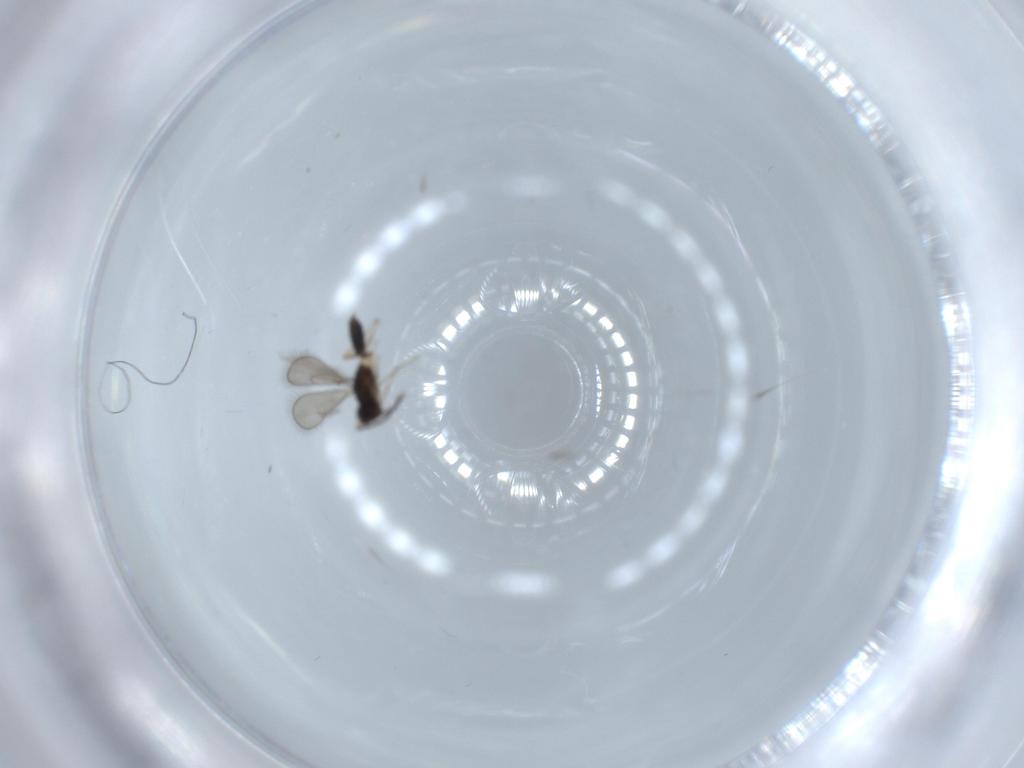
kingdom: Animalia
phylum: Arthropoda
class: Insecta
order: Hymenoptera
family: Eulophidae
